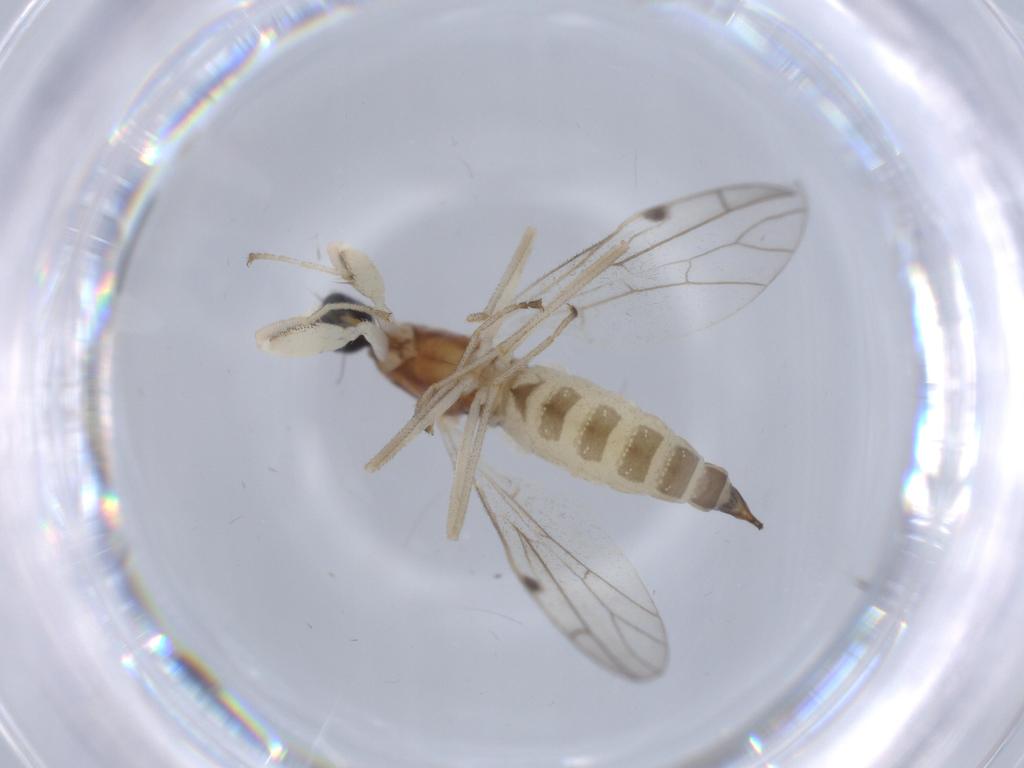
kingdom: Animalia
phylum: Arthropoda
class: Insecta
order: Diptera
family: Empididae
